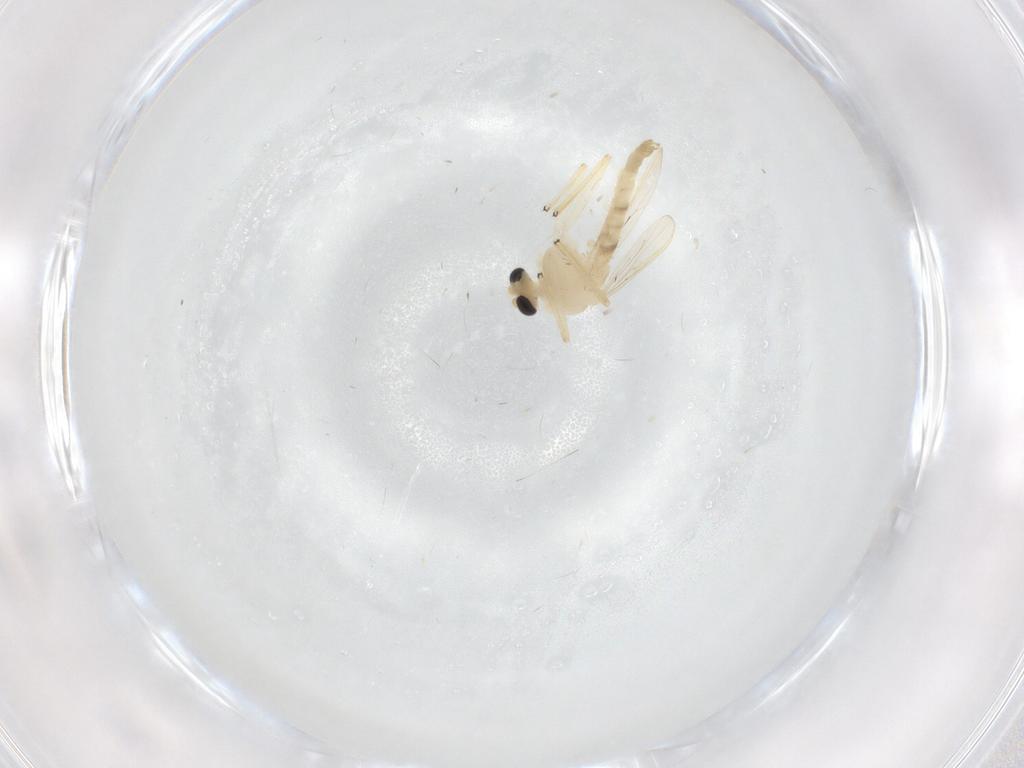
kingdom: Animalia
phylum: Arthropoda
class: Insecta
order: Diptera
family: Chironomidae
